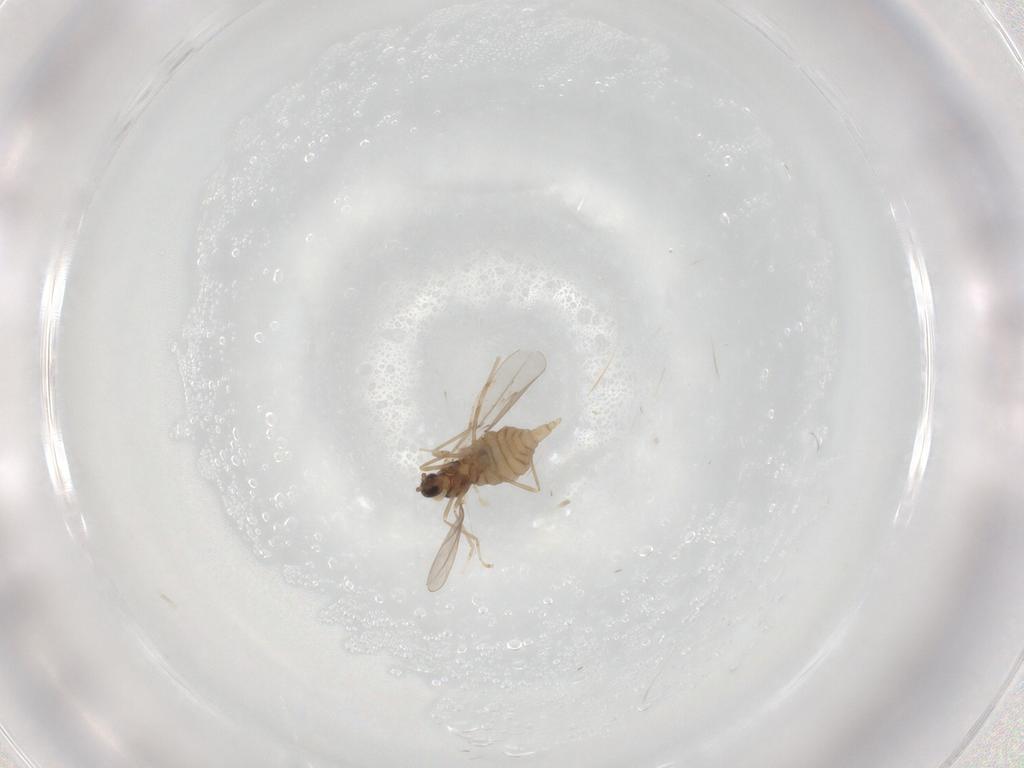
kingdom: Animalia
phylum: Arthropoda
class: Insecta
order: Diptera
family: Cecidomyiidae
